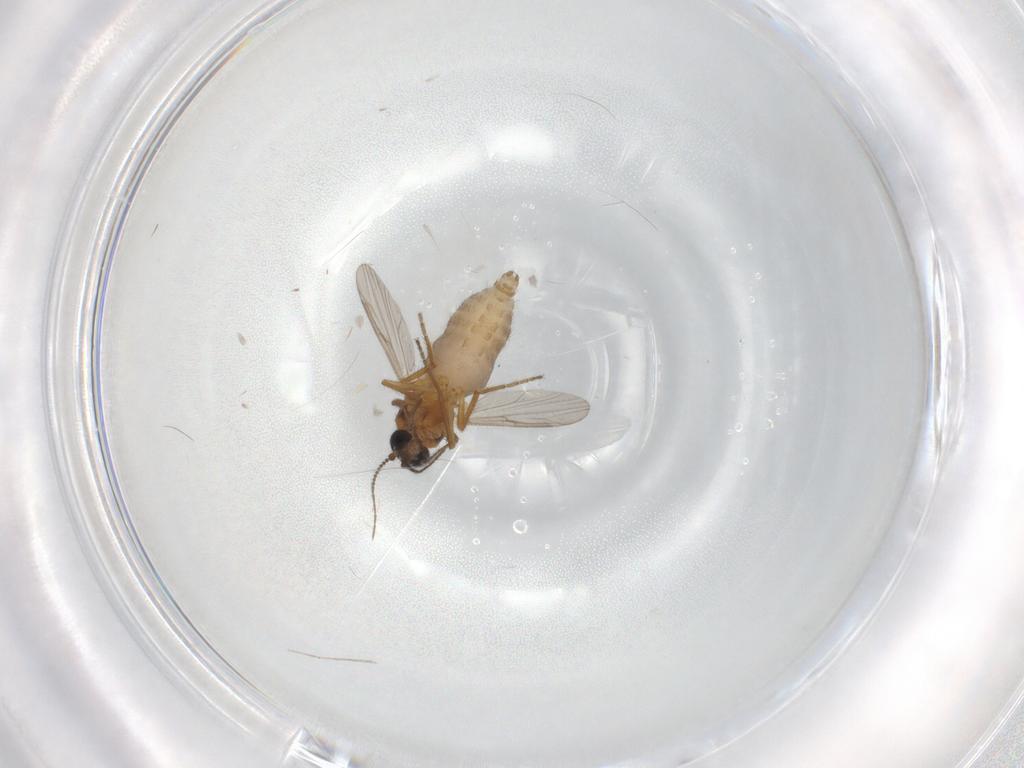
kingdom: Animalia
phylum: Arthropoda
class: Insecta
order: Diptera
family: Ceratopogonidae
